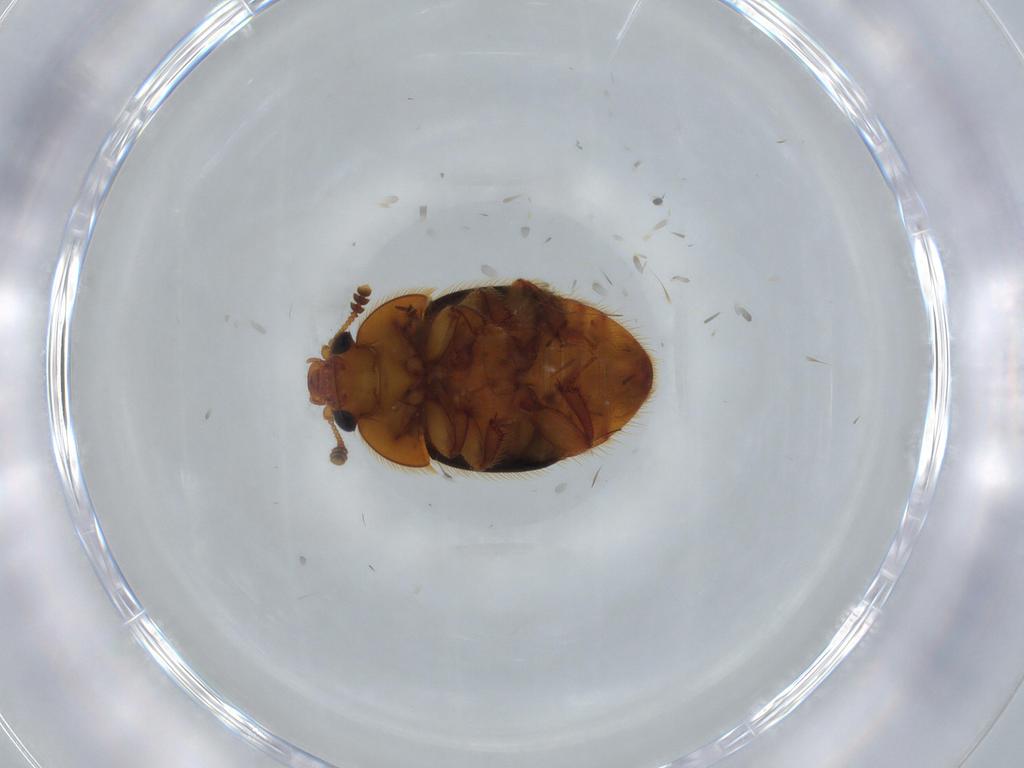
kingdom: Animalia
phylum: Arthropoda
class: Insecta
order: Coleoptera
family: Nitidulidae
